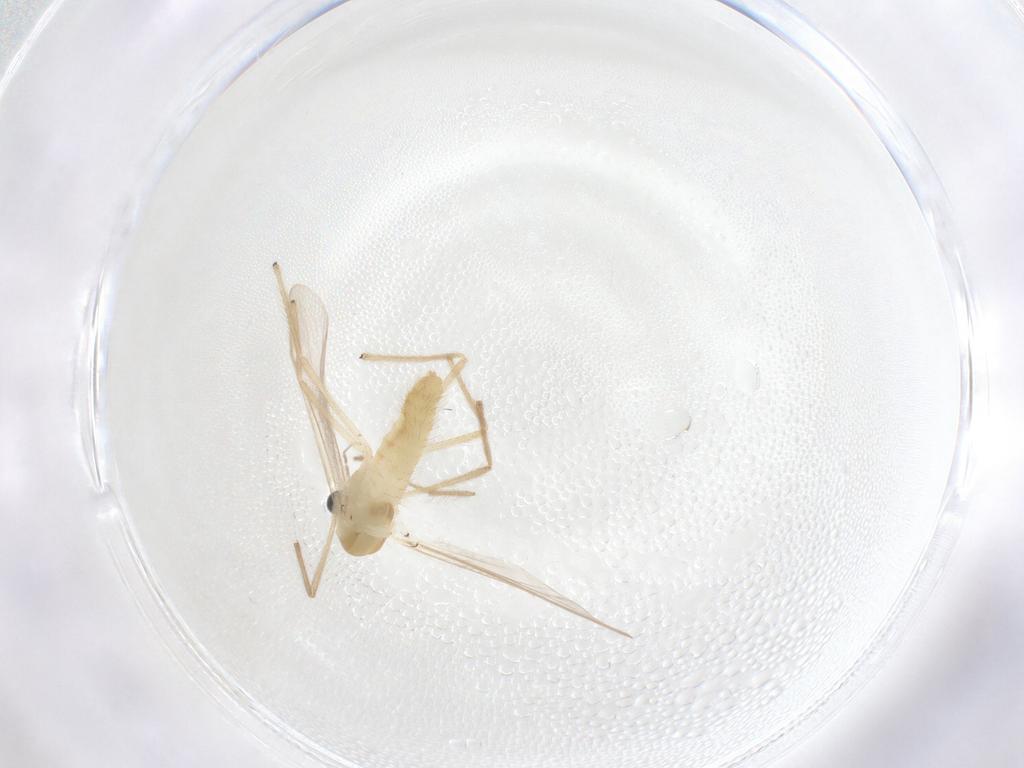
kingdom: Animalia
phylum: Arthropoda
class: Insecta
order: Diptera
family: Chironomidae
